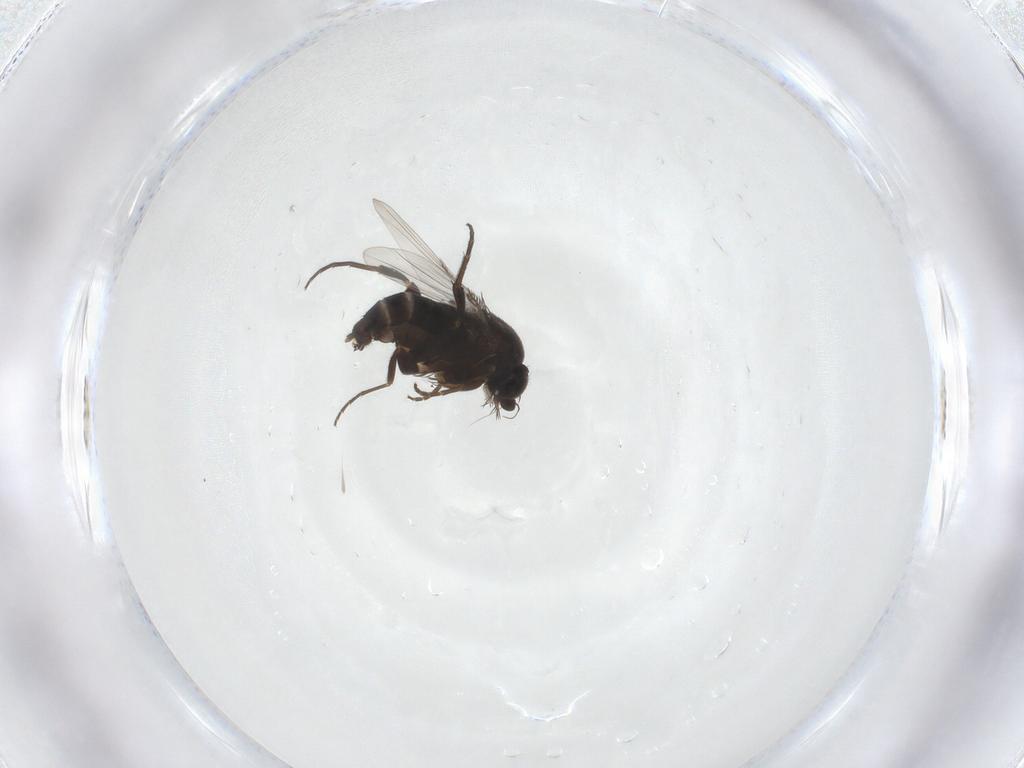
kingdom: Animalia
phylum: Arthropoda
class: Insecta
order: Diptera
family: Phoridae
